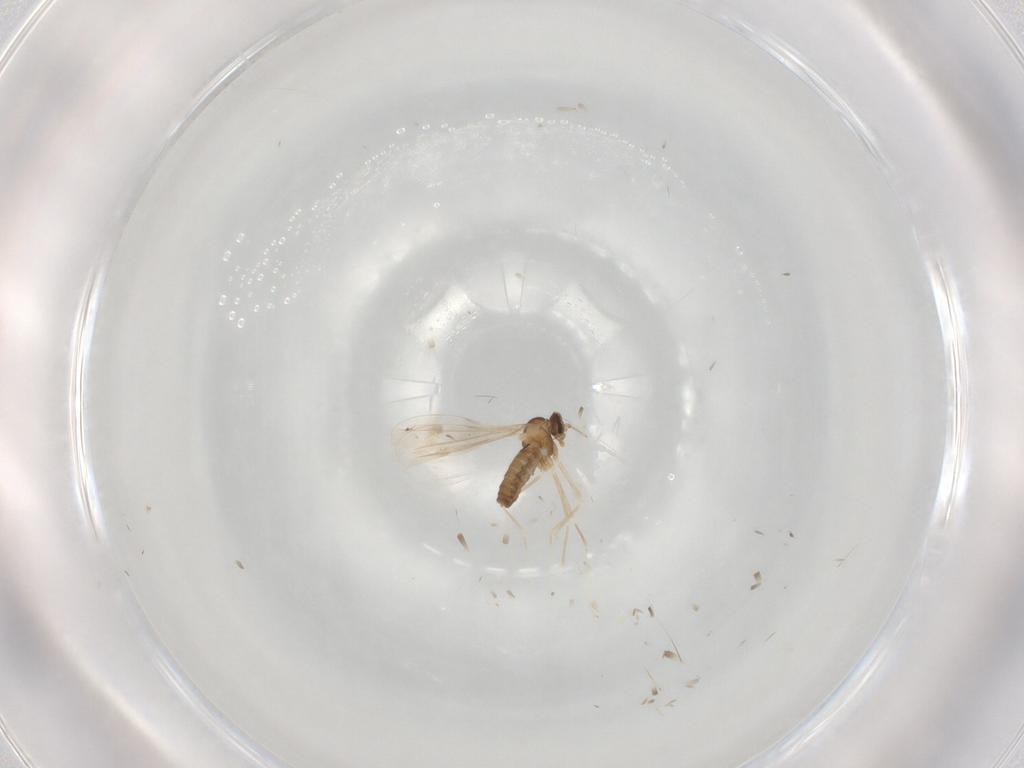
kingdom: Animalia
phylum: Arthropoda
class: Insecta
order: Diptera
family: Cecidomyiidae
